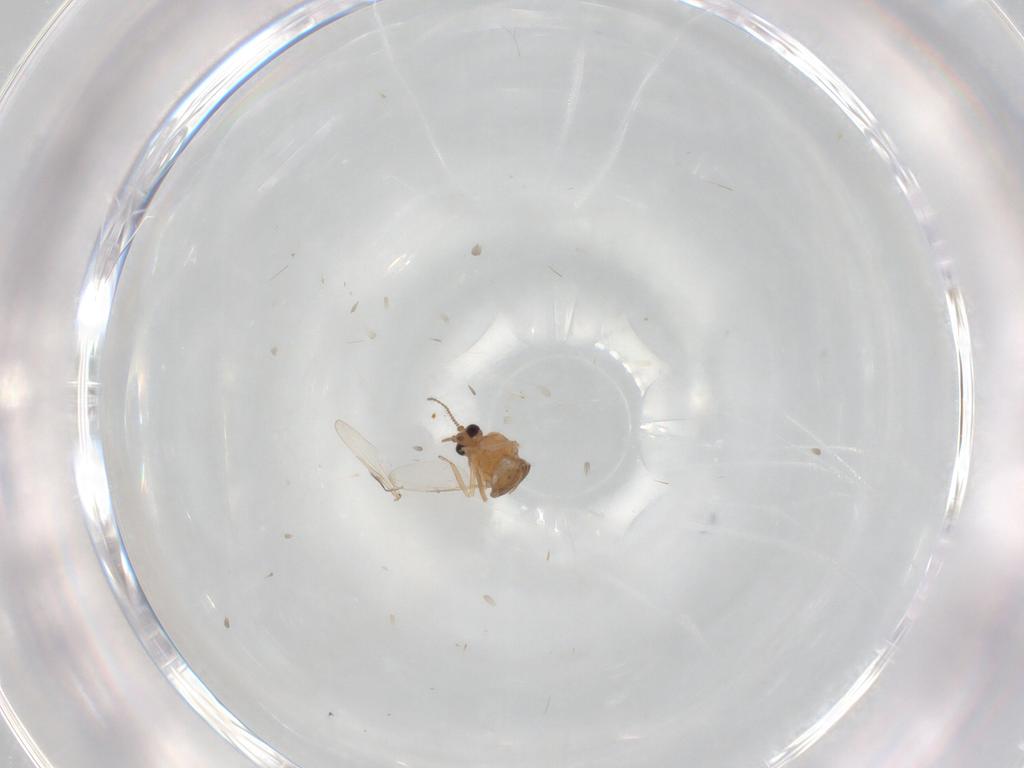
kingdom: Animalia
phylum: Arthropoda
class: Insecta
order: Diptera
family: Ceratopogonidae
